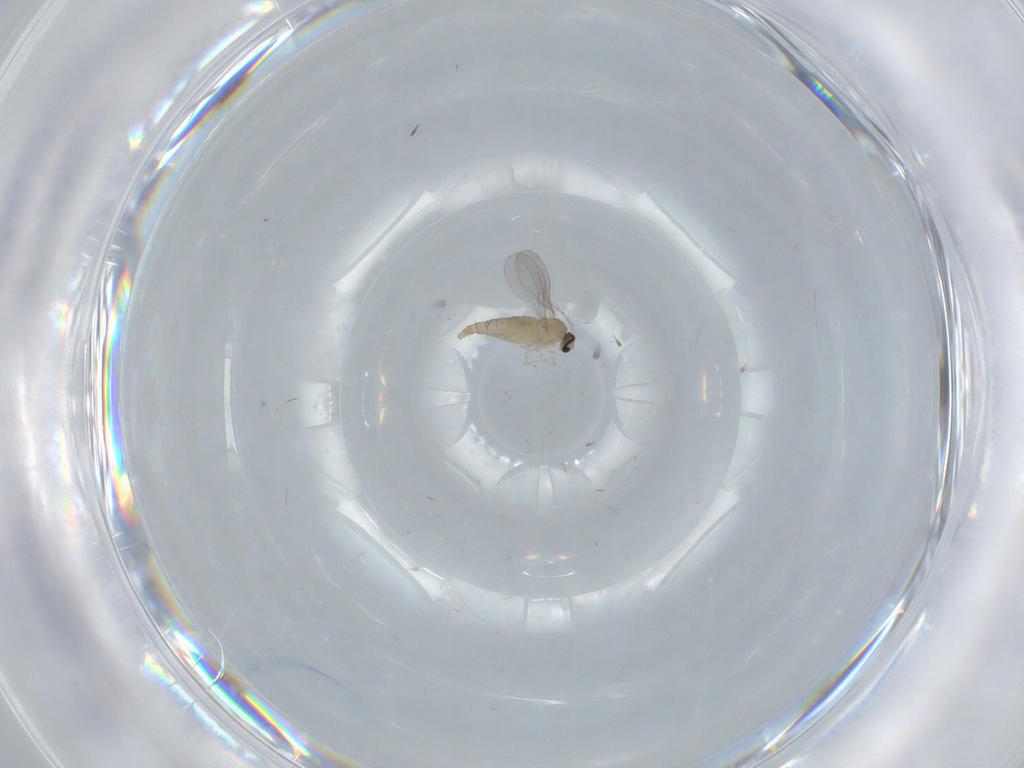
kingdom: Animalia
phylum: Arthropoda
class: Insecta
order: Diptera
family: Cecidomyiidae
